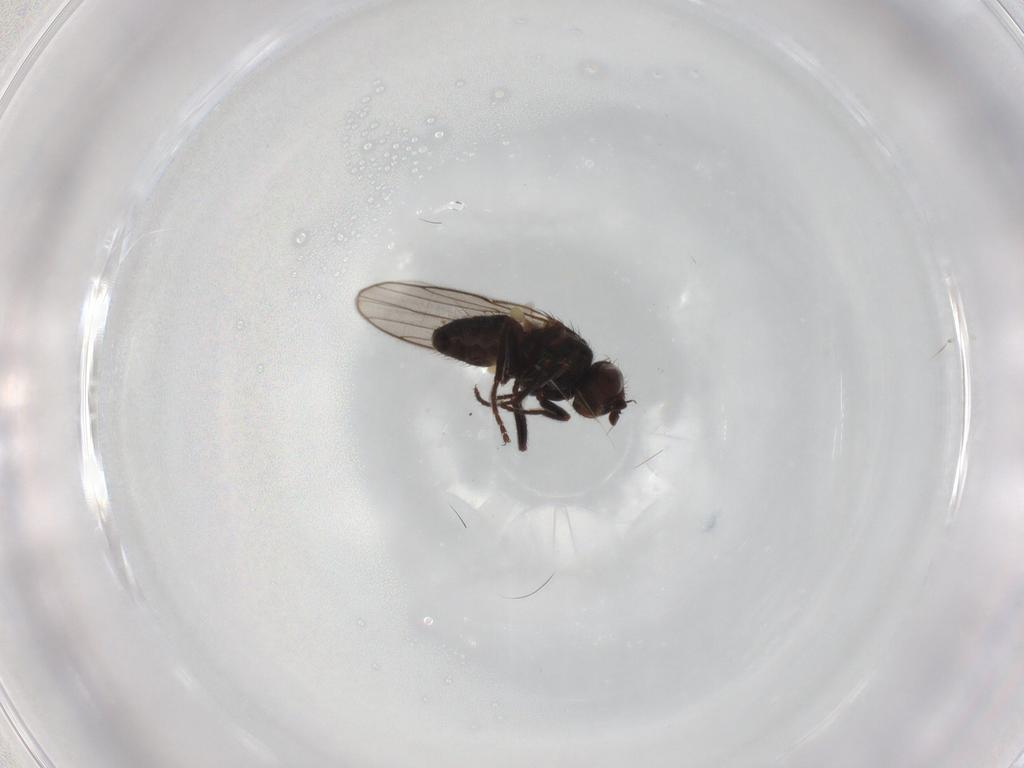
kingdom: Animalia
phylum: Arthropoda
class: Insecta
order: Diptera
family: Chloropidae
